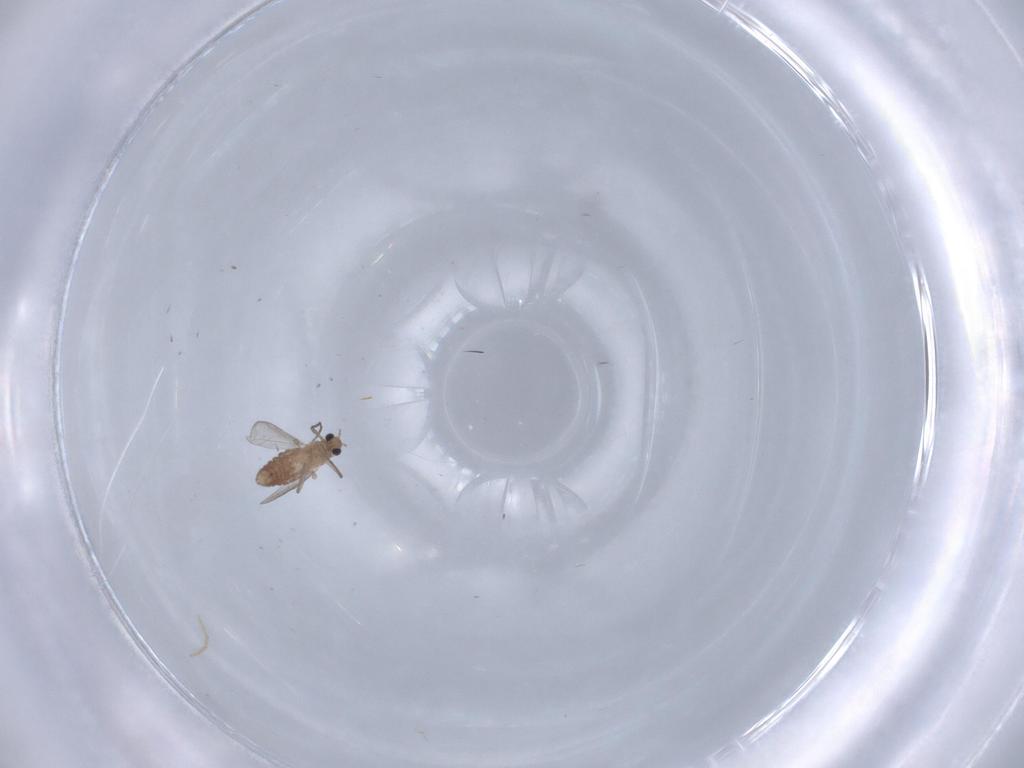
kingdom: Animalia
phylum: Arthropoda
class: Insecta
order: Diptera
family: Chironomidae
